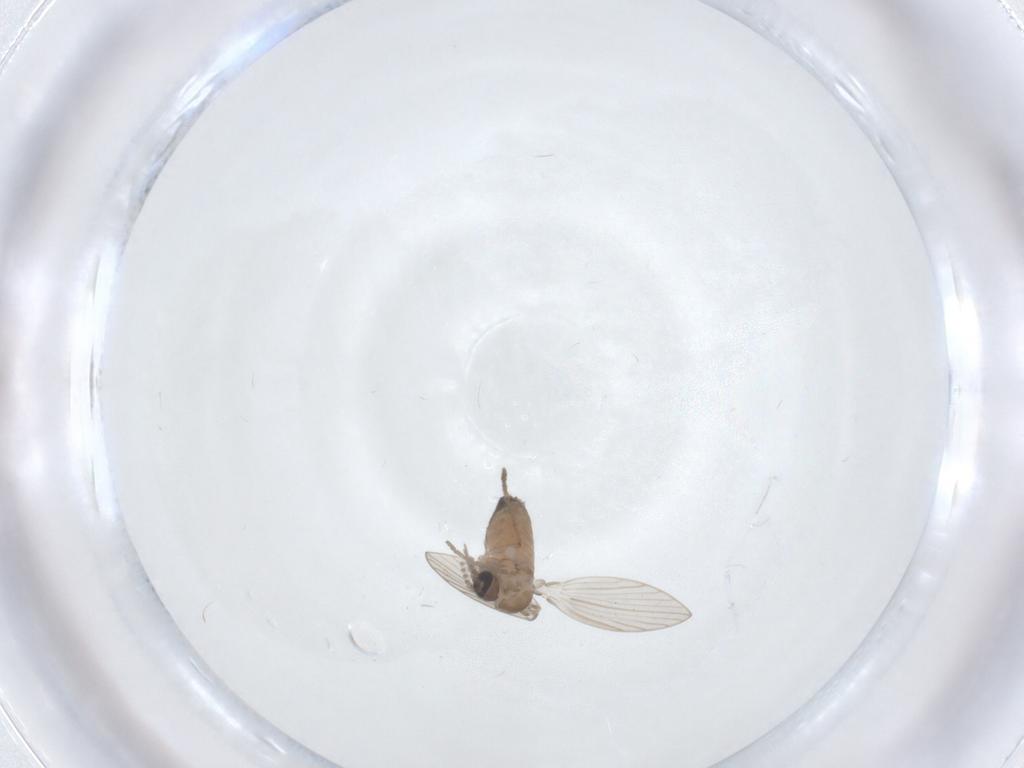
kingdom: Animalia
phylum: Arthropoda
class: Insecta
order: Diptera
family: Psychodidae
